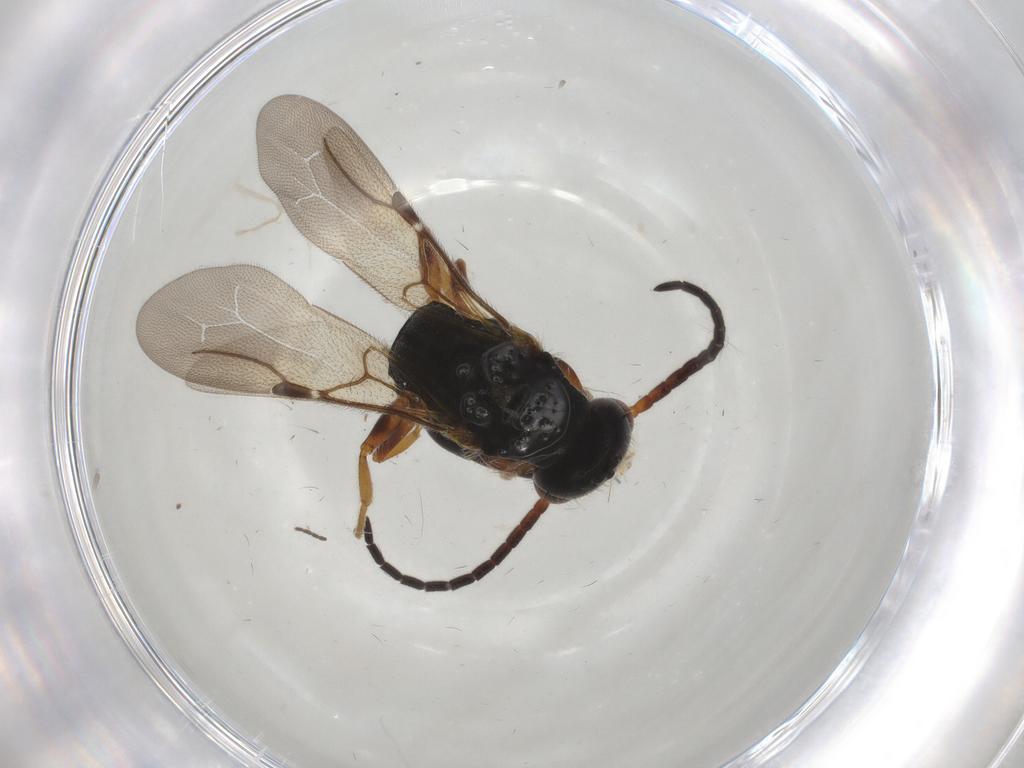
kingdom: Animalia
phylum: Arthropoda
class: Insecta
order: Hymenoptera
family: Bethylidae
